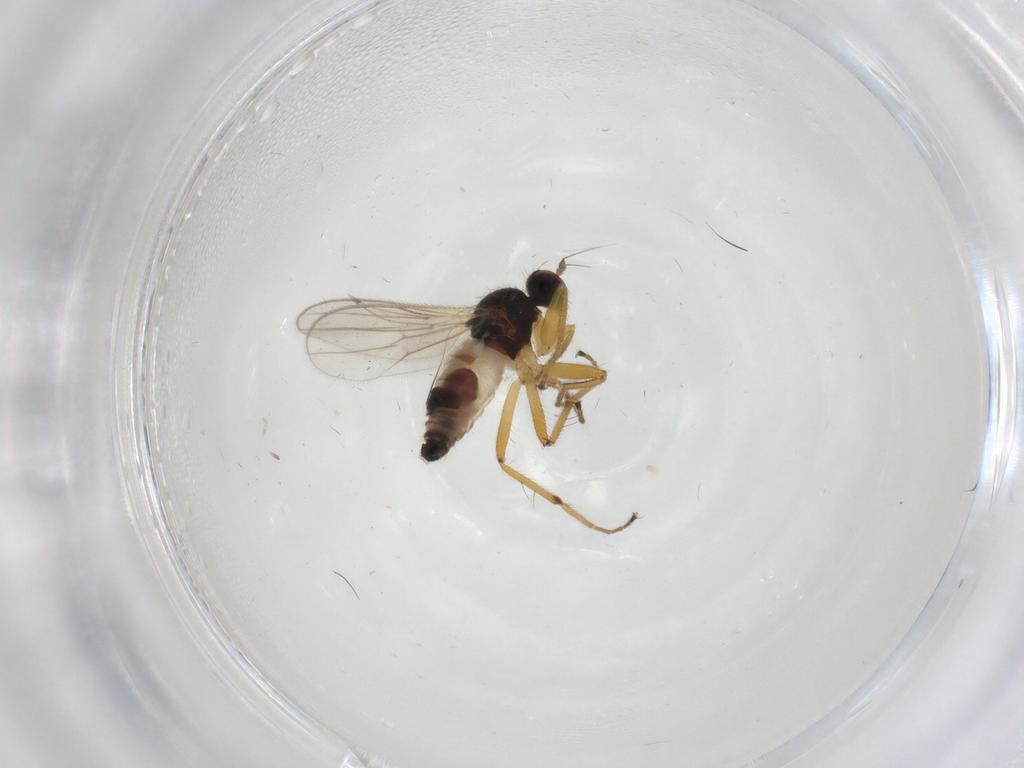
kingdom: Animalia
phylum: Arthropoda
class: Insecta
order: Diptera
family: Hybotidae
